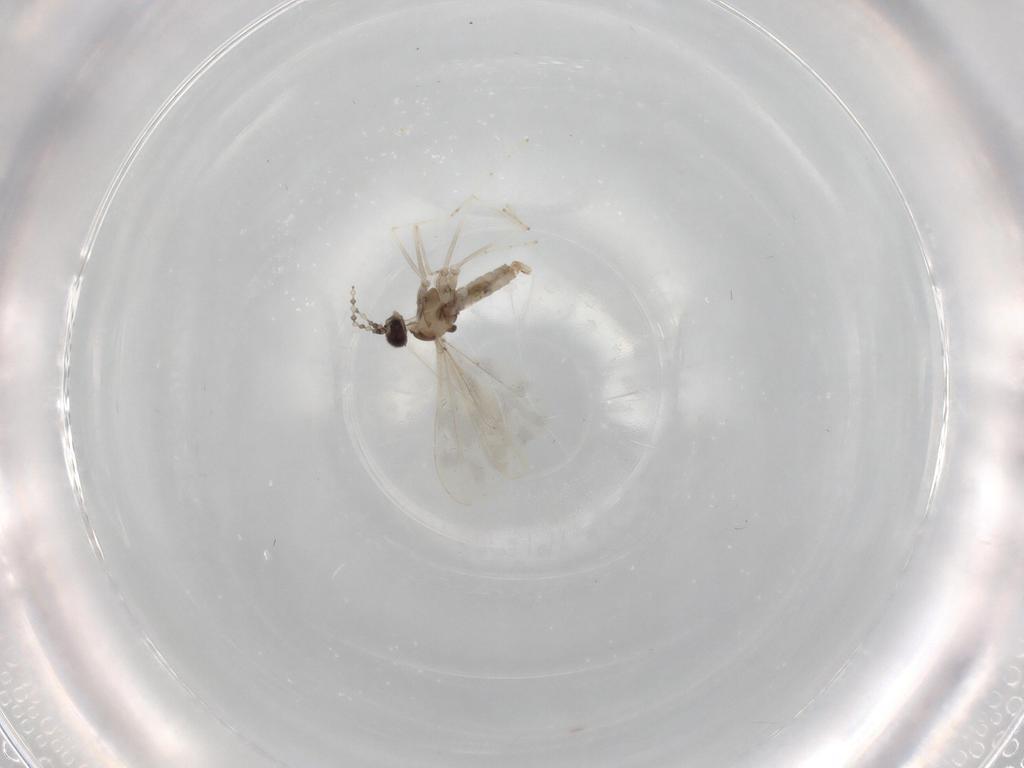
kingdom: Animalia
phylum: Arthropoda
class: Insecta
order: Diptera
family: Cecidomyiidae
